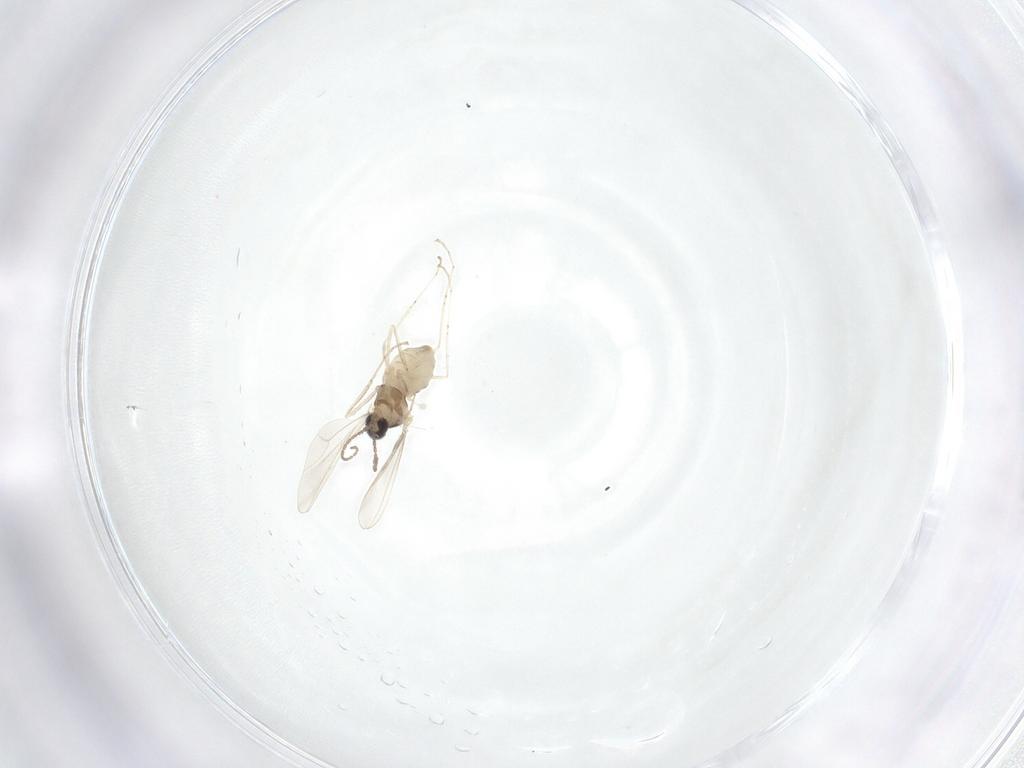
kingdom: Animalia
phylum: Arthropoda
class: Insecta
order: Diptera
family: Cecidomyiidae
